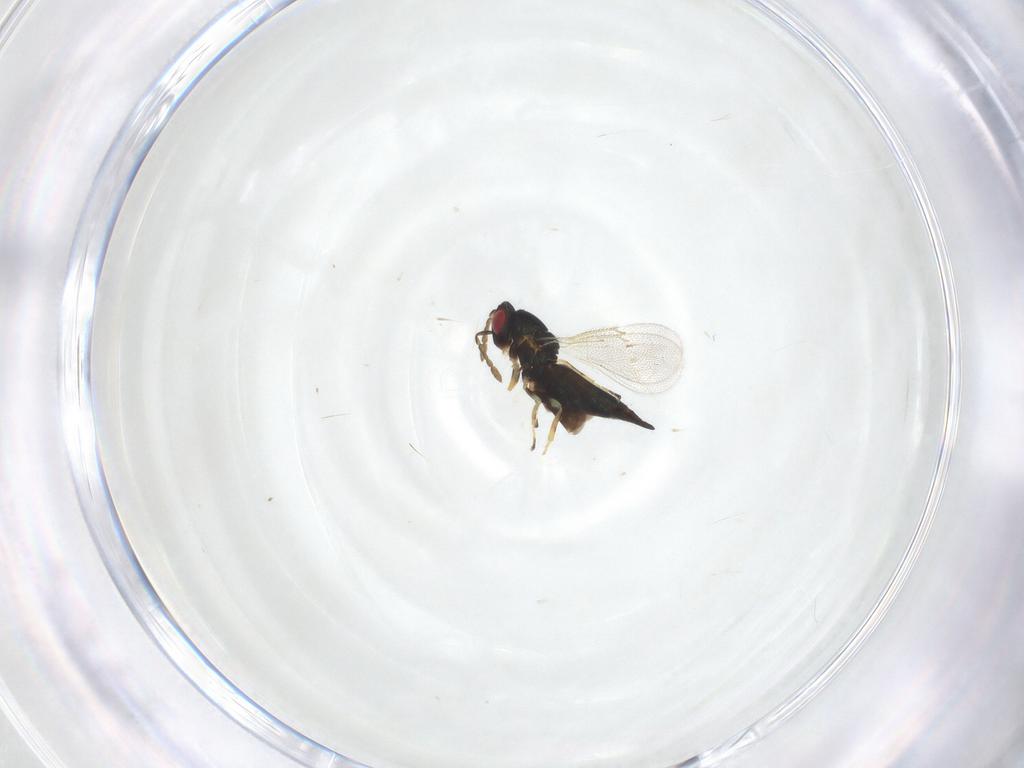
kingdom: Animalia
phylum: Arthropoda
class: Insecta
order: Hymenoptera
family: Eulophidae
